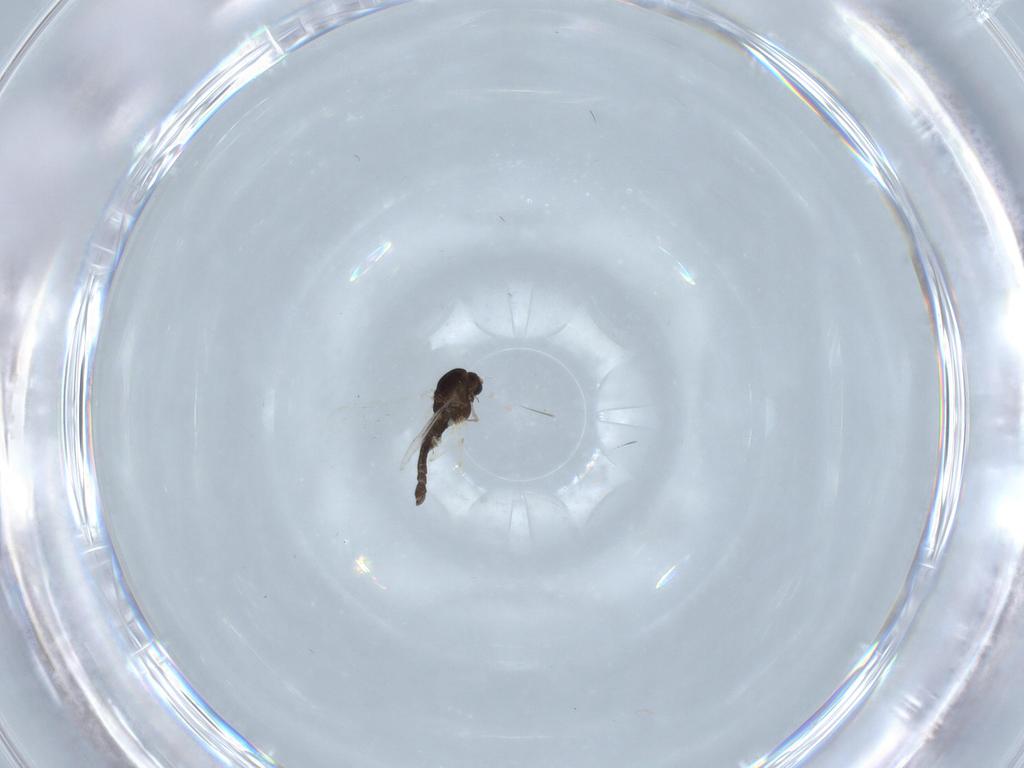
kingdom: Animalia
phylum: Arthropoda
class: Insecta
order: Diptera
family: Chironomidae
